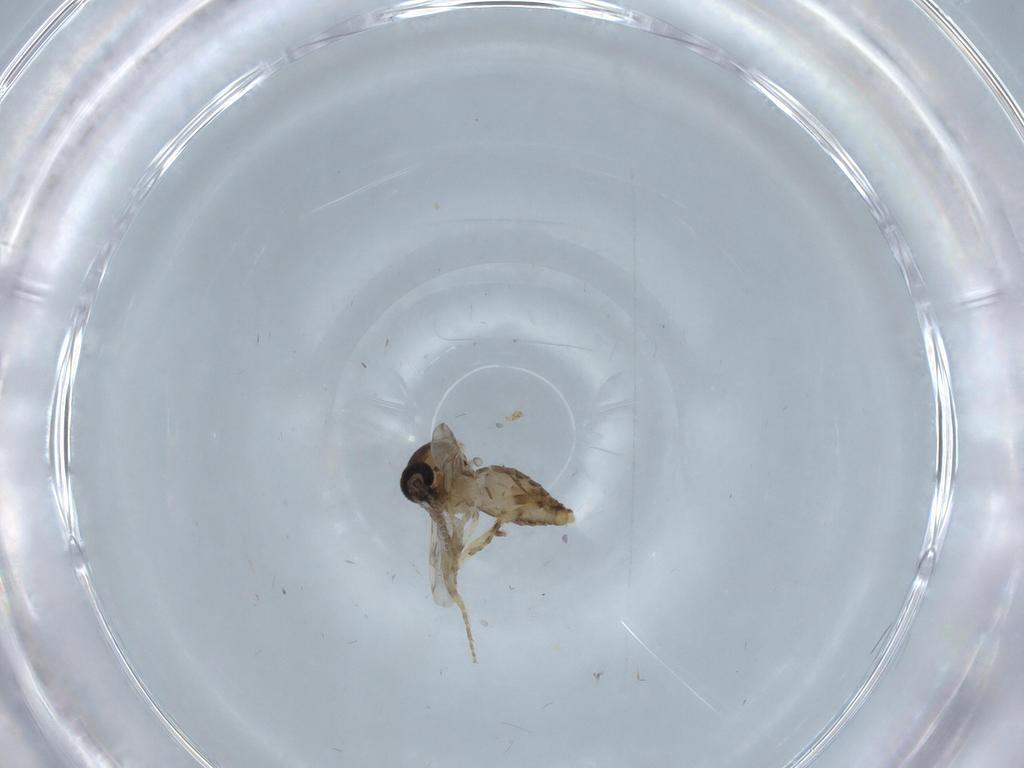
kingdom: Animalia
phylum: Arthropoda
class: Insecta
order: Diptera
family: Ceratopogonidae
